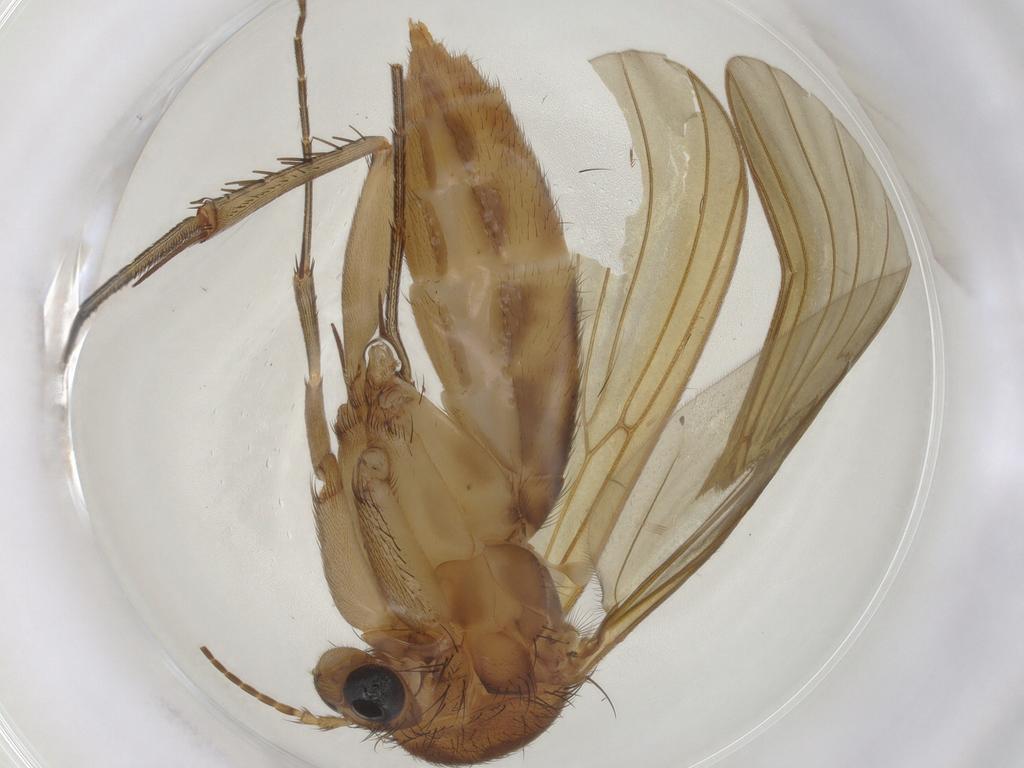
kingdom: Animalia
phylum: Arthropoda
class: Insecta
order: Diptera
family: Mycetophilidae
